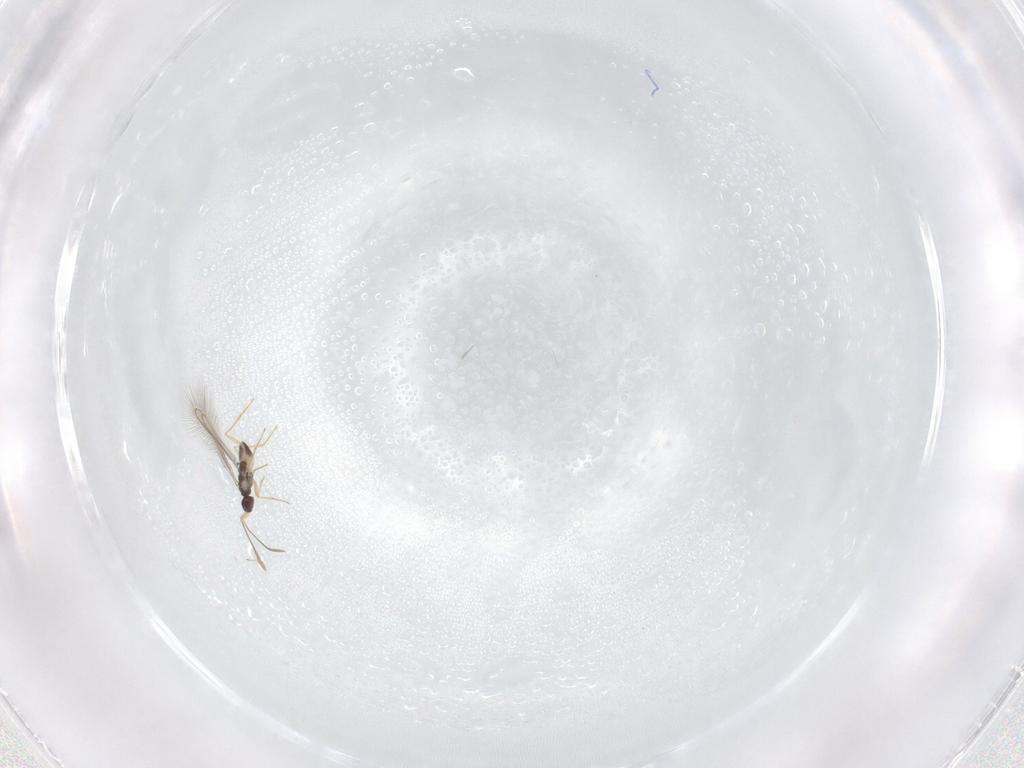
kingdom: Animalia
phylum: Arthropoda
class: Insecta
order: Hymenoptera
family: Mymaridae
